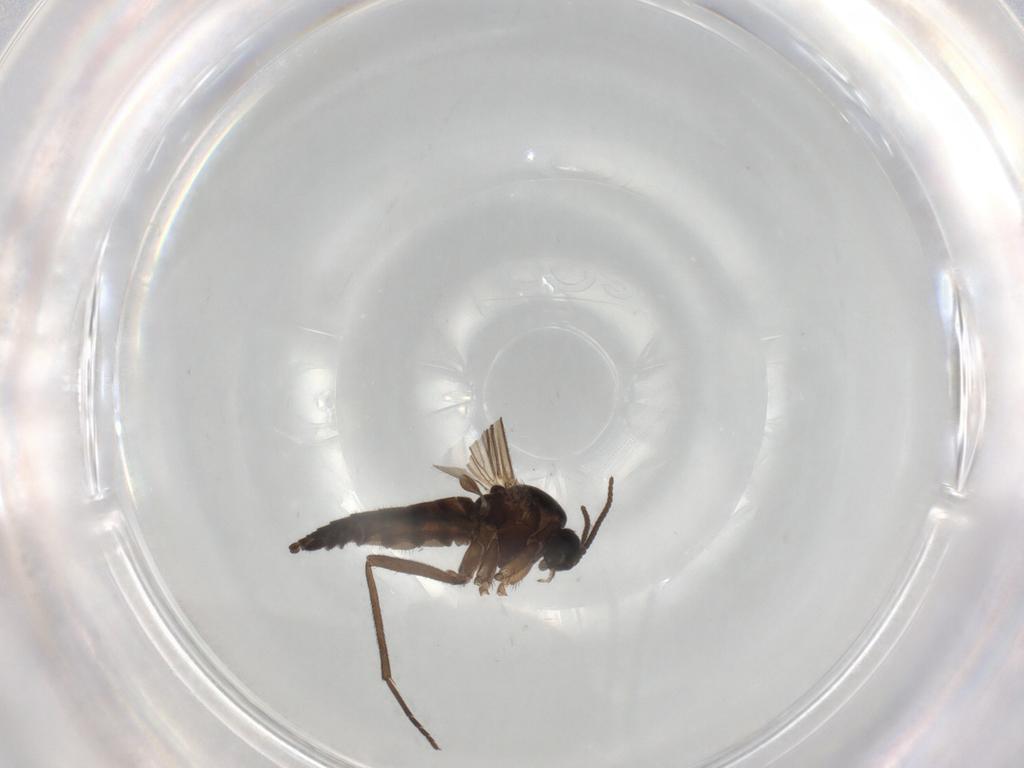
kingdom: Animalia
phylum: Arthropoda
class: Insecta
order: Diptera
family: Sciaridae
